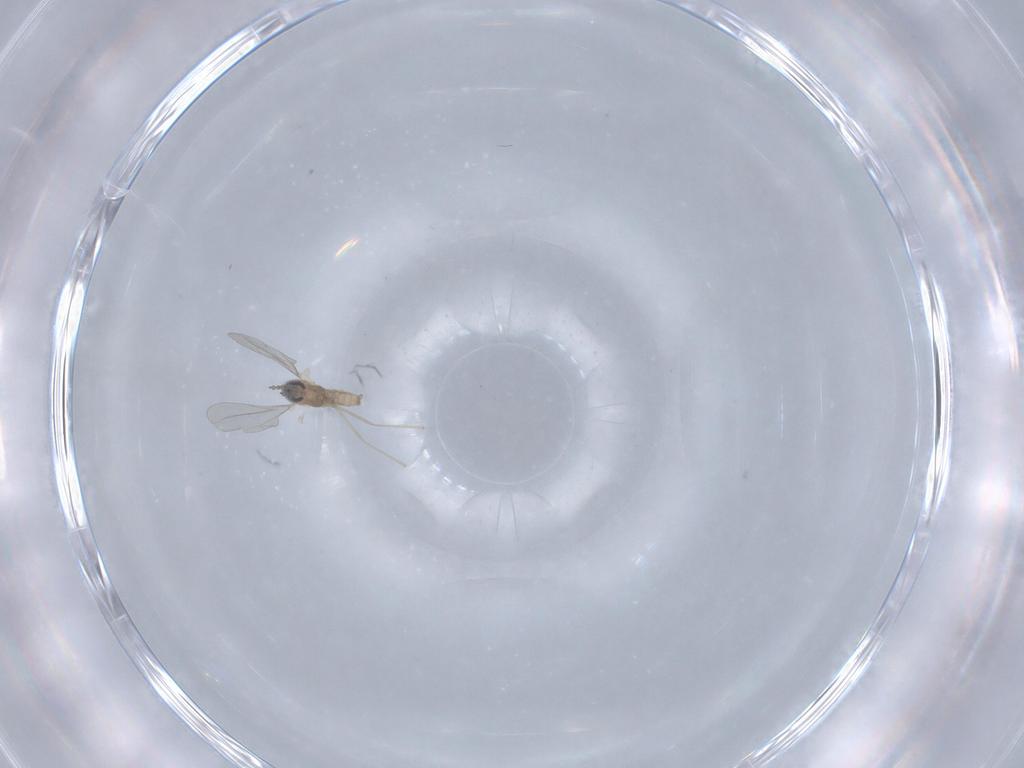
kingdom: Animalia
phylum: Arthropoda
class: Insecta
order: Diptera
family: Cecidomyiidae
